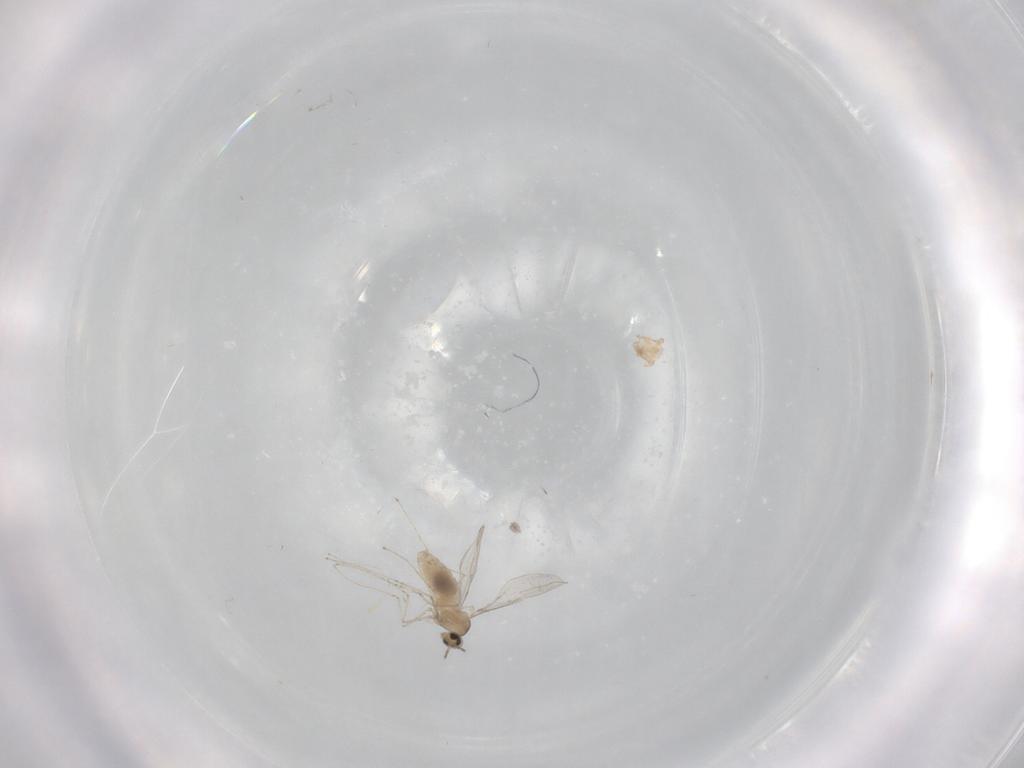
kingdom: Animalia
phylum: Arthropoda
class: Insecta
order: Diptera
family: Cecidomyiidae
